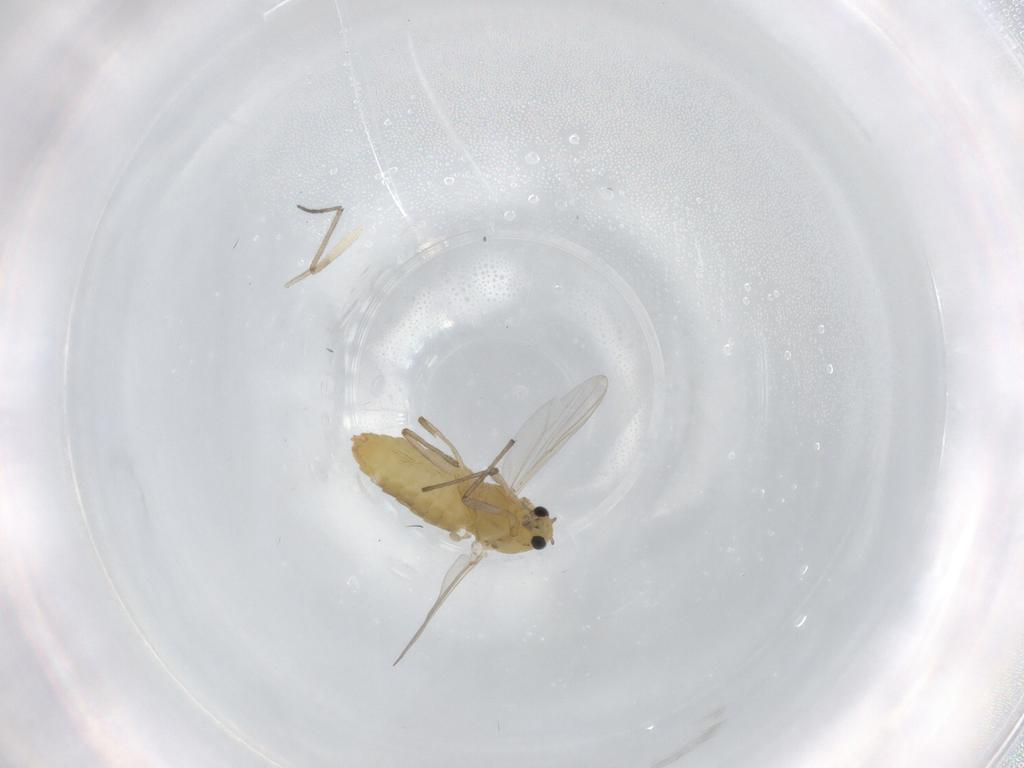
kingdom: Animalia
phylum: Arthropoda
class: Insecta
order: Diptera
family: Chironomidae
